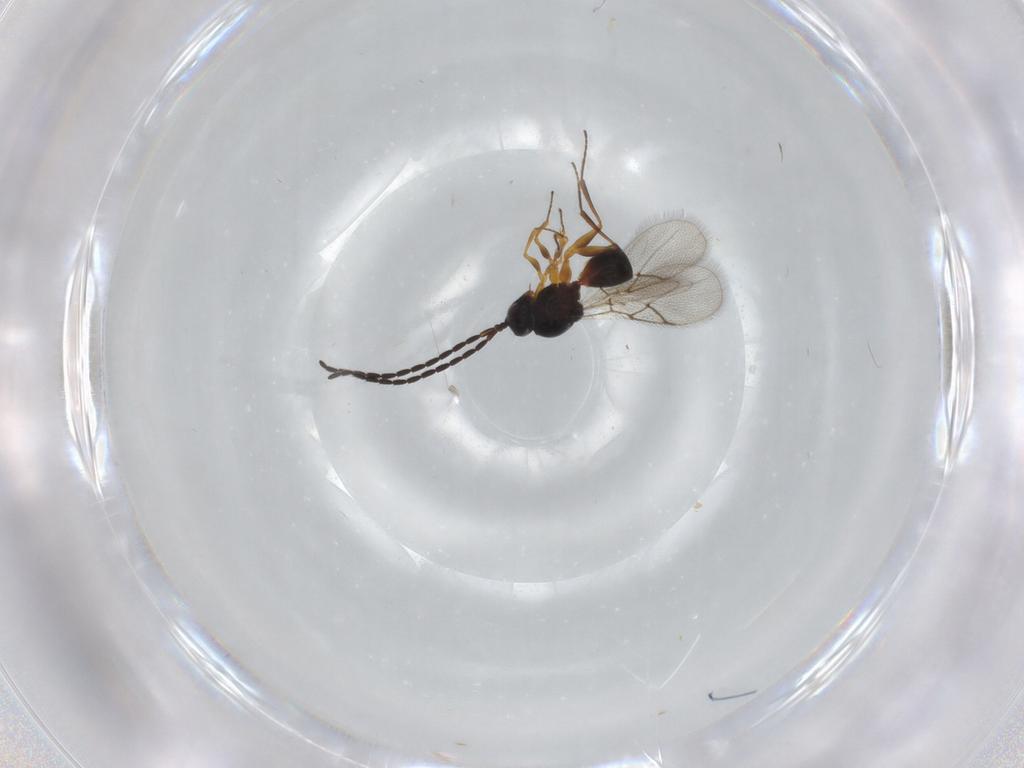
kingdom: Animalia
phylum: Arthropoda
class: Insecta
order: Hymenoptera
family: Figitidae
